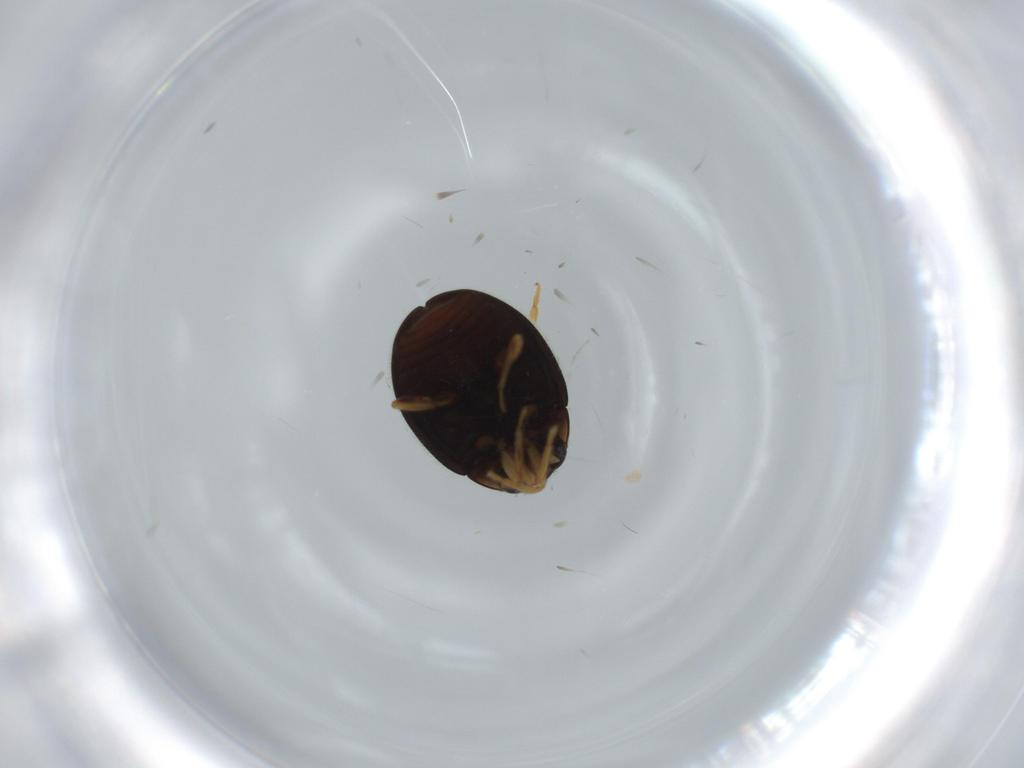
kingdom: Animalia
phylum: Arthropoda
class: Insecta
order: Coleoptera
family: Coccinellidae
